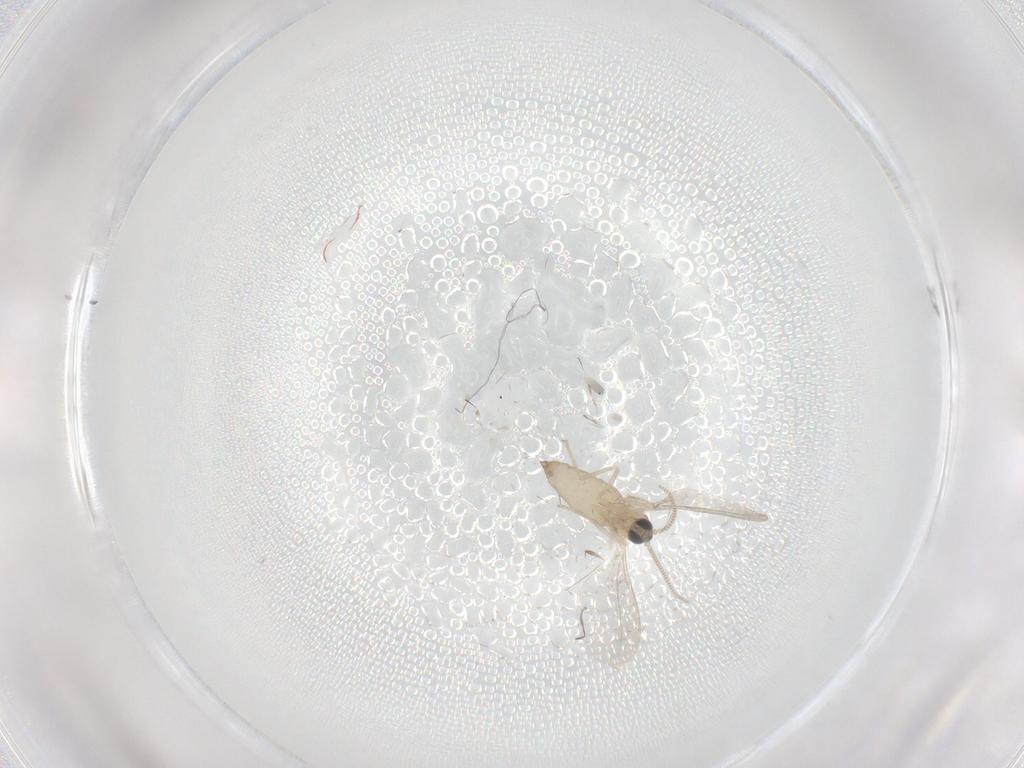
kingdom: Animalia
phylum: Arthropoda
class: Insecta
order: Diptera
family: Cecidomyiidae
